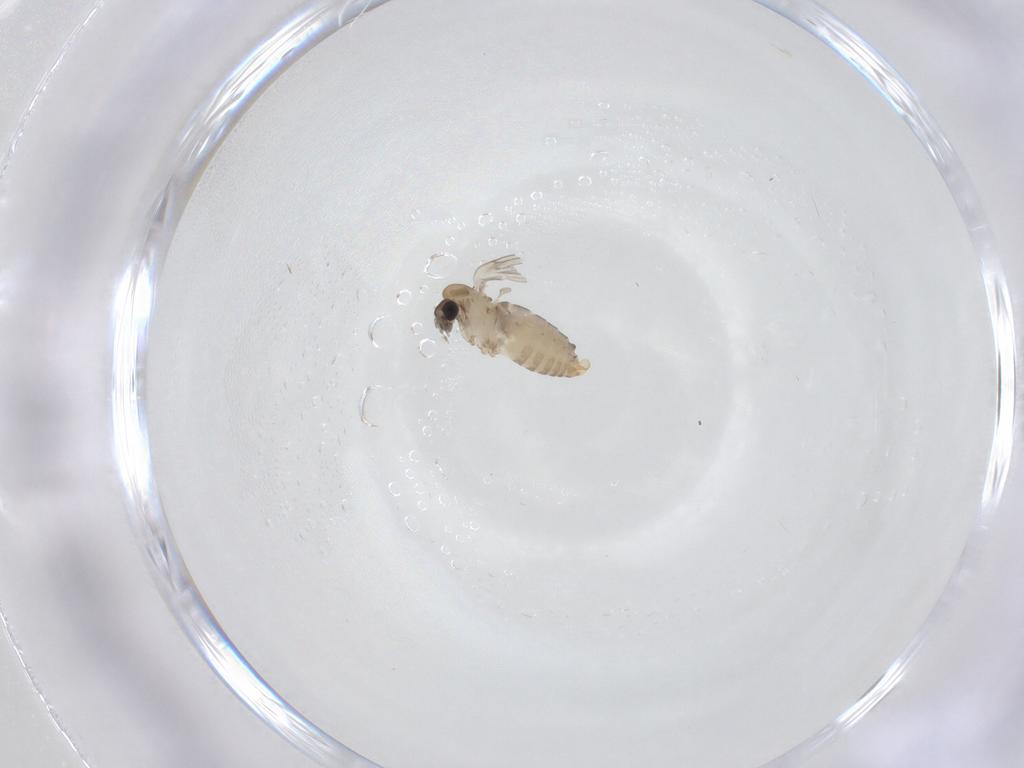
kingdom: Animalia
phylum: Arthropoda
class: Insecta
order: Diptera
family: Psychodidae
